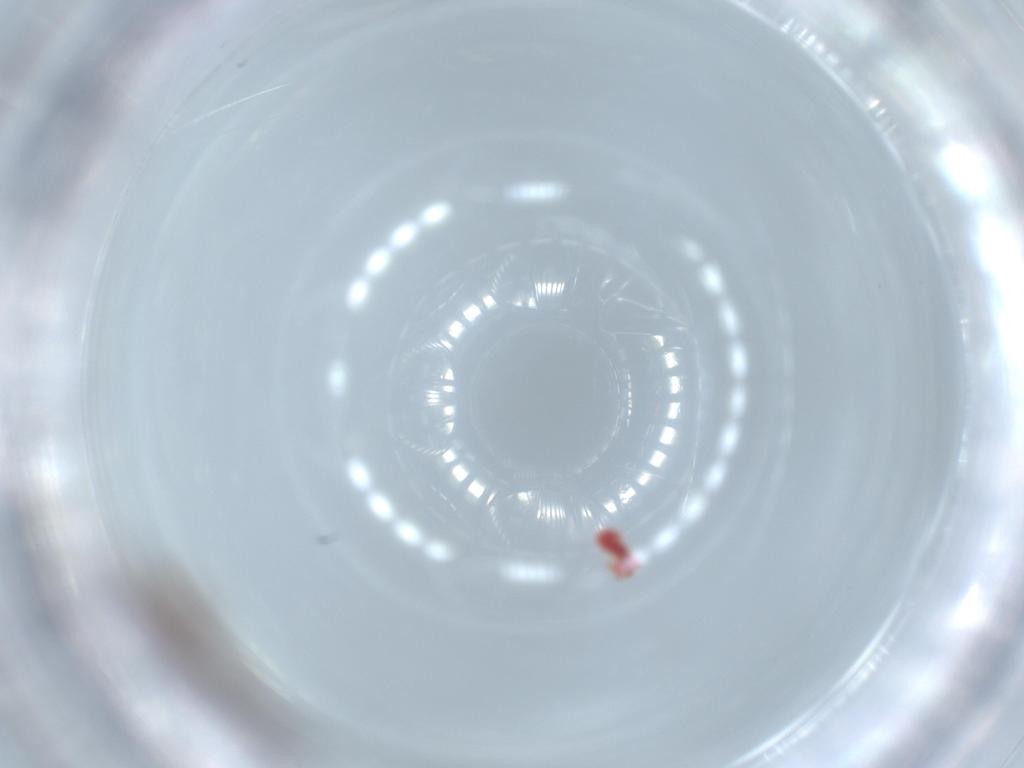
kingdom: Animalia
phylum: Arthropoda
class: Insecta
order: Coleoptera
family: Silvanidae
